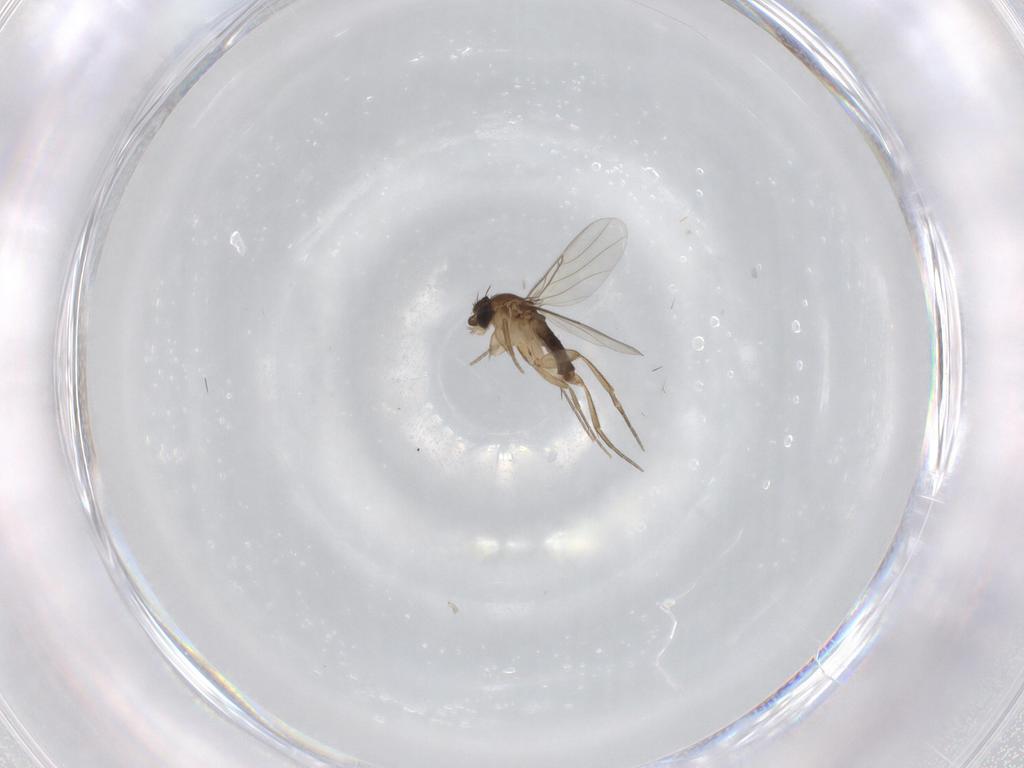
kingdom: Animalia
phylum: Arthropoda
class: Insecta
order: Diptera
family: Phoridae
